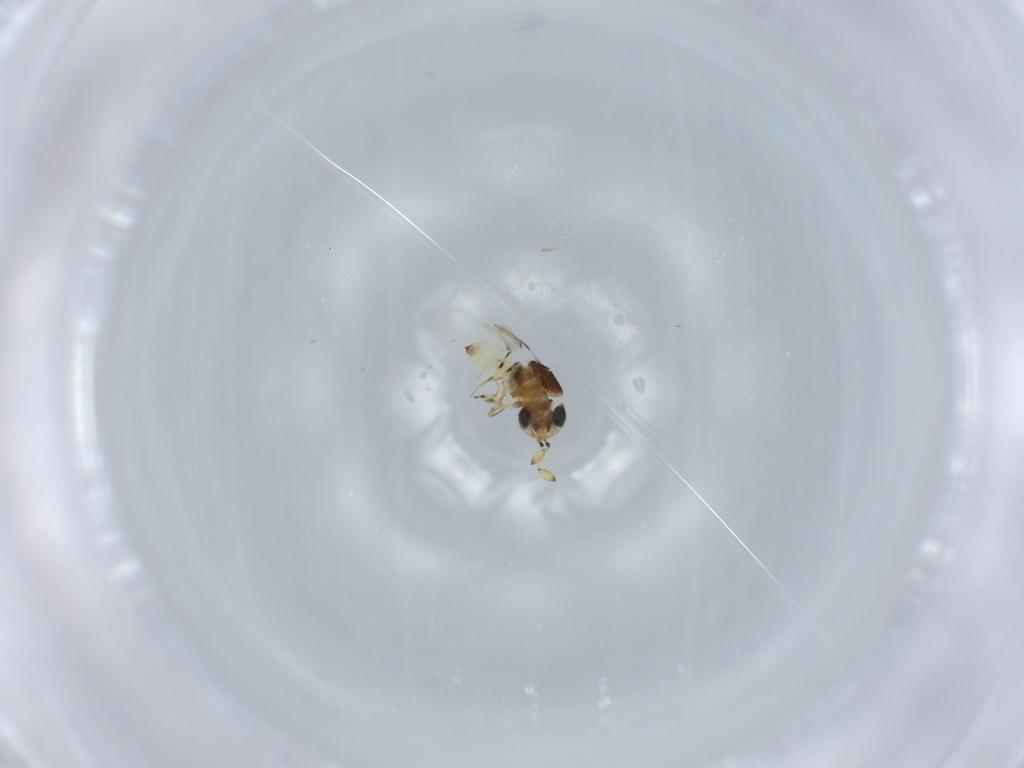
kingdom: Animalia
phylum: Arthropoda
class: Insecta
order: Hymenoptera
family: Scelionidae
